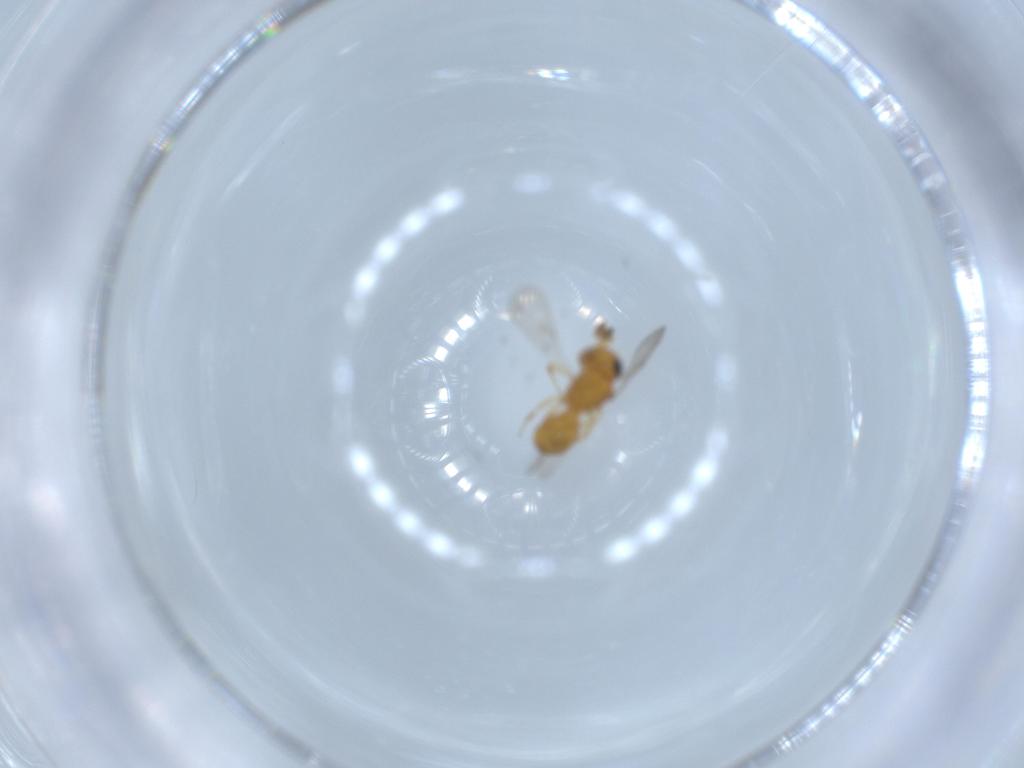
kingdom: Animalia
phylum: Arthropoda
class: Insecta
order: Hymenoptera
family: Scelionidae
